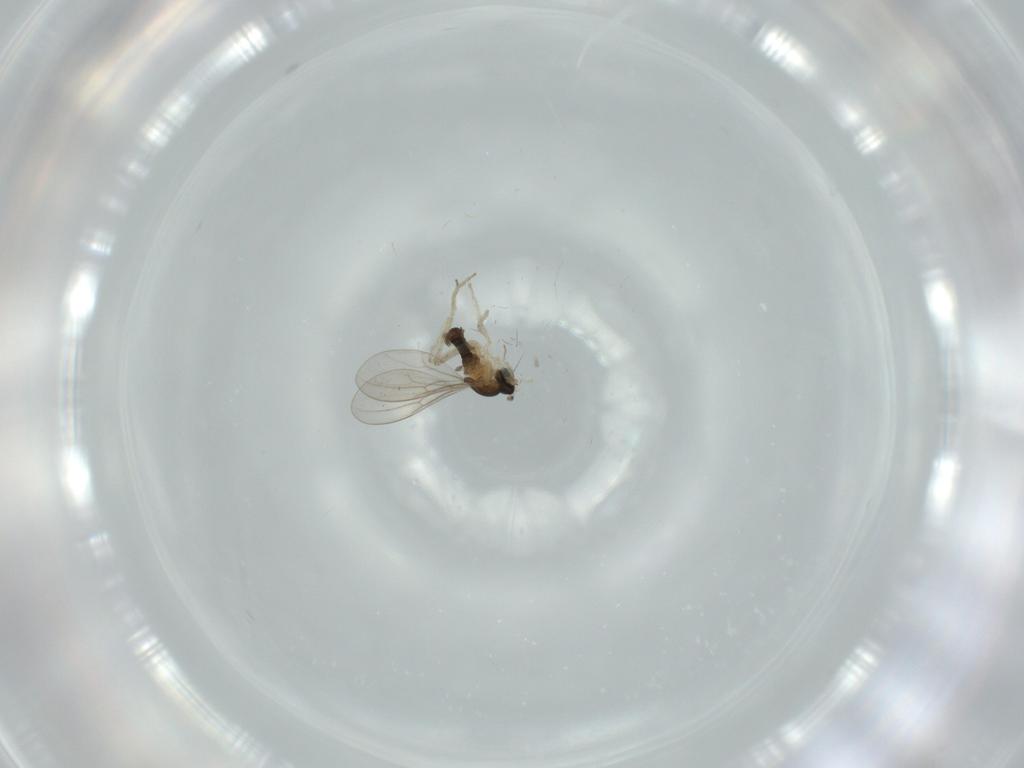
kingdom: Animalia
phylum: Arthropoda
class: Insecta
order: Diptera
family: Cecidomyiidae
